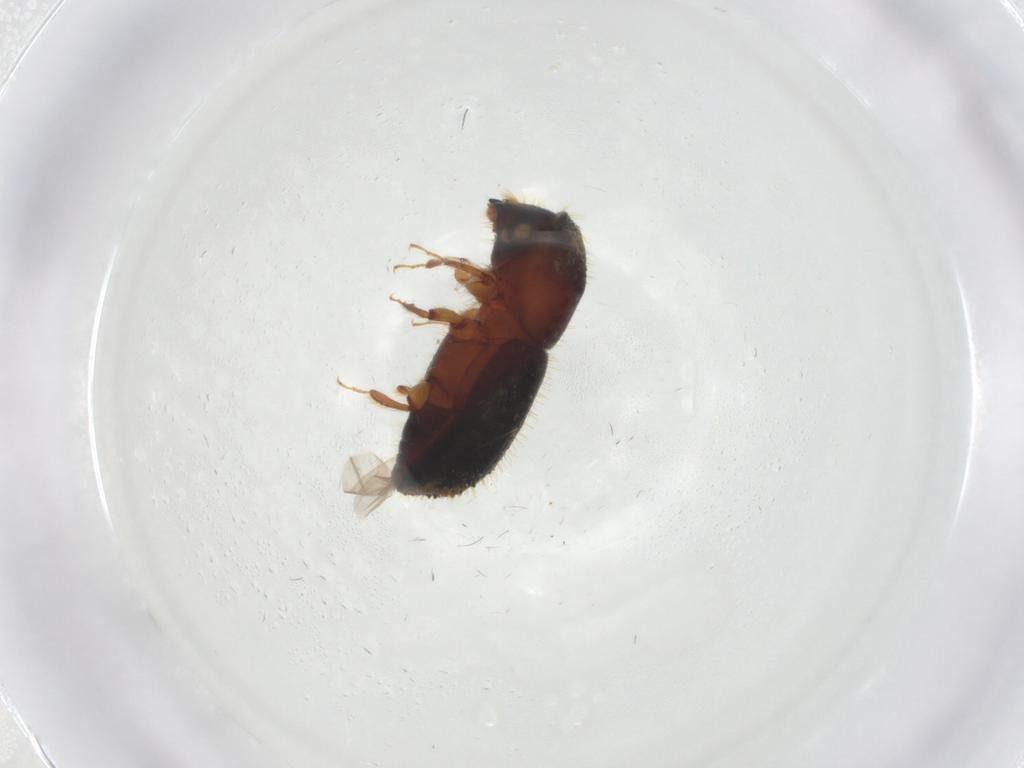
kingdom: Animalia
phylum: Arthropoda
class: Insecta
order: Coleoptera
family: Curculionidae
